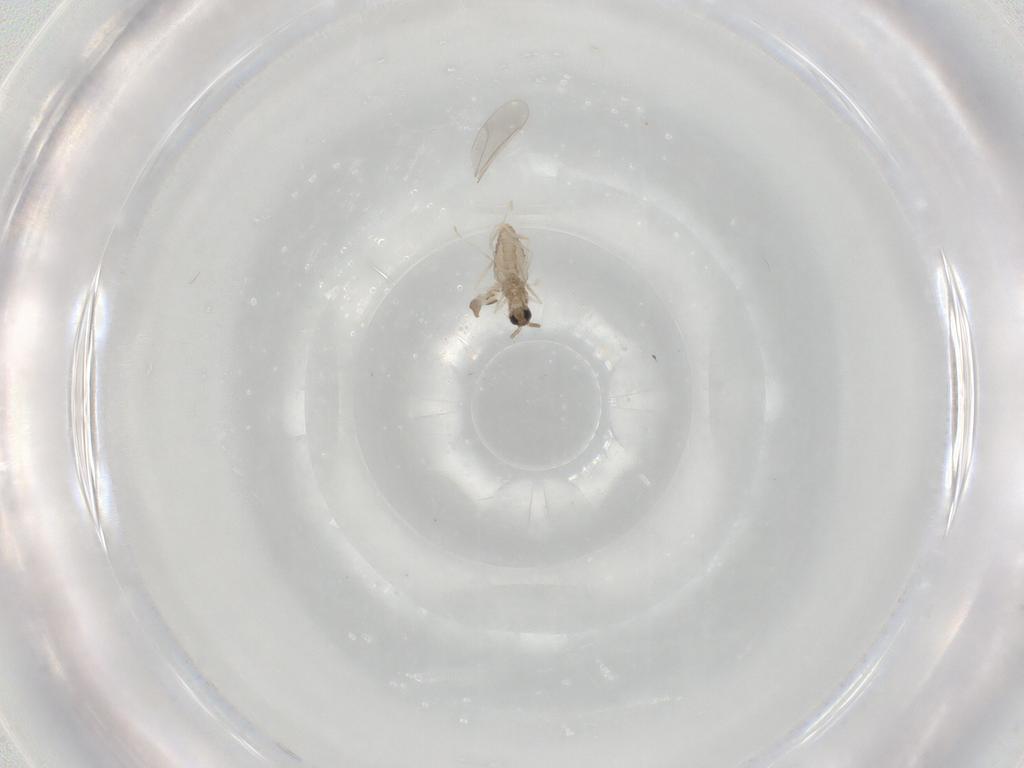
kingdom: Animalia
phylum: Arthropoda
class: Insecta
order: Diptera
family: Cecidomyiidae
